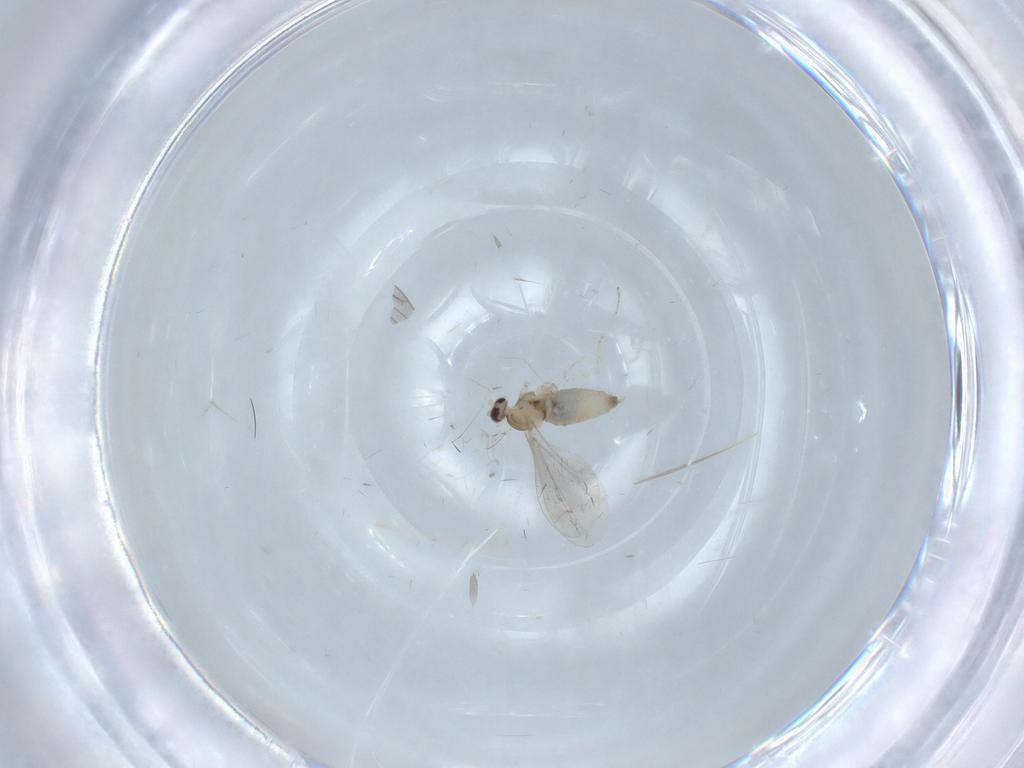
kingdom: Animalia
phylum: Arthropoda
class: Insecta
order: Diptera
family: Cecidomyiidae
